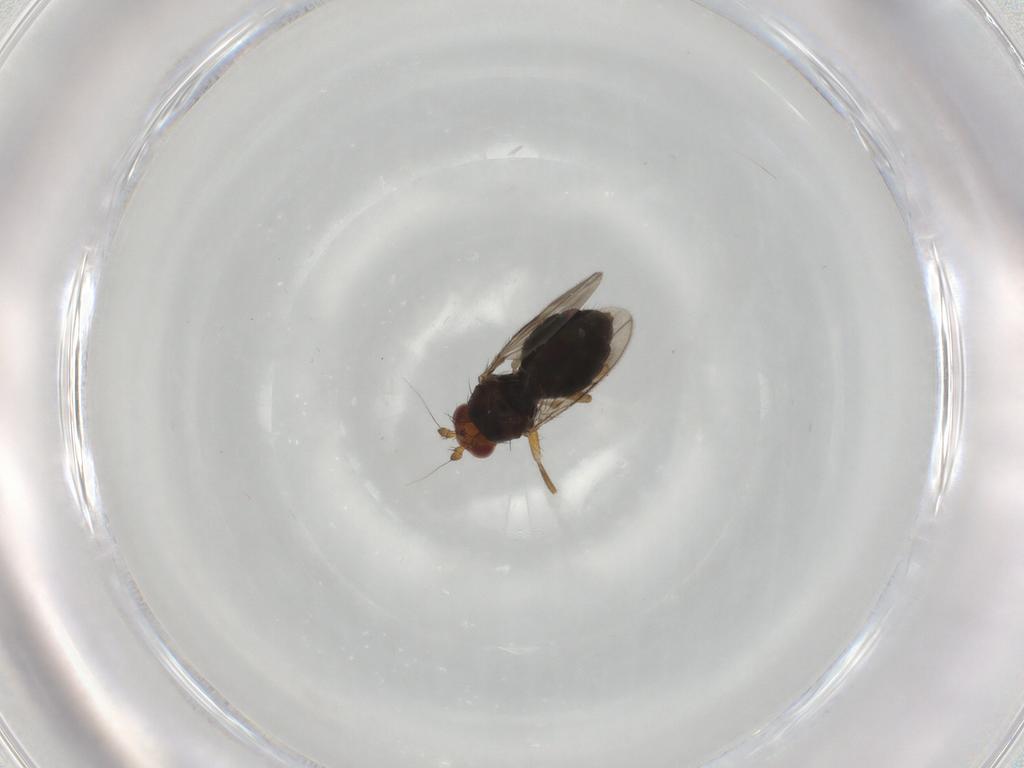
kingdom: Animalia
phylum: Arthropoda
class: Insecta
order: Diptera
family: Sphaeroceridae
